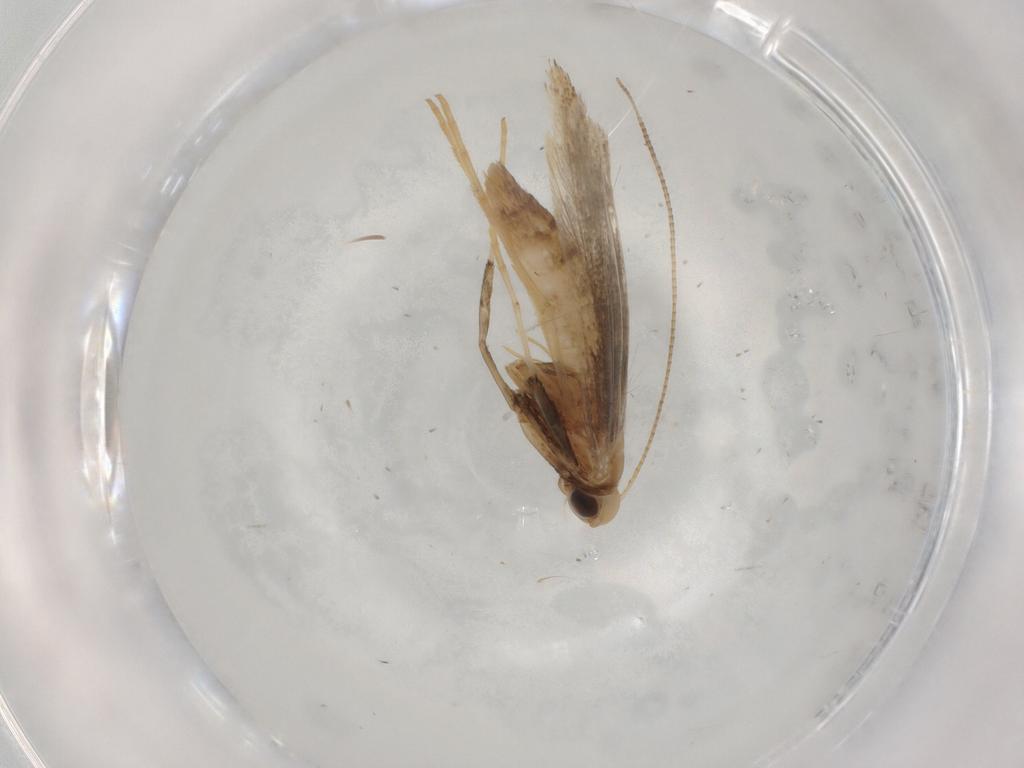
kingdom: Animalia
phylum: Arthropoda
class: Insecta
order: Lepidoptera
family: Gracillariidae
